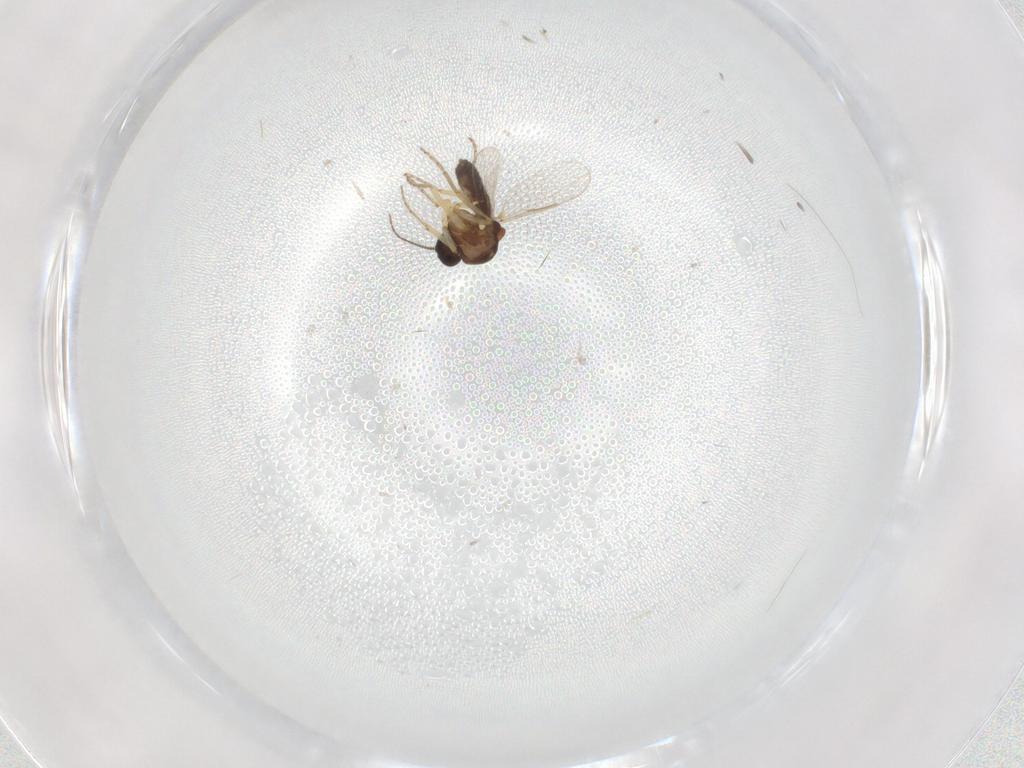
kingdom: Animalia
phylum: Arthropoda
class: Insecta
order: Diptera
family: Ceratopogonidae
